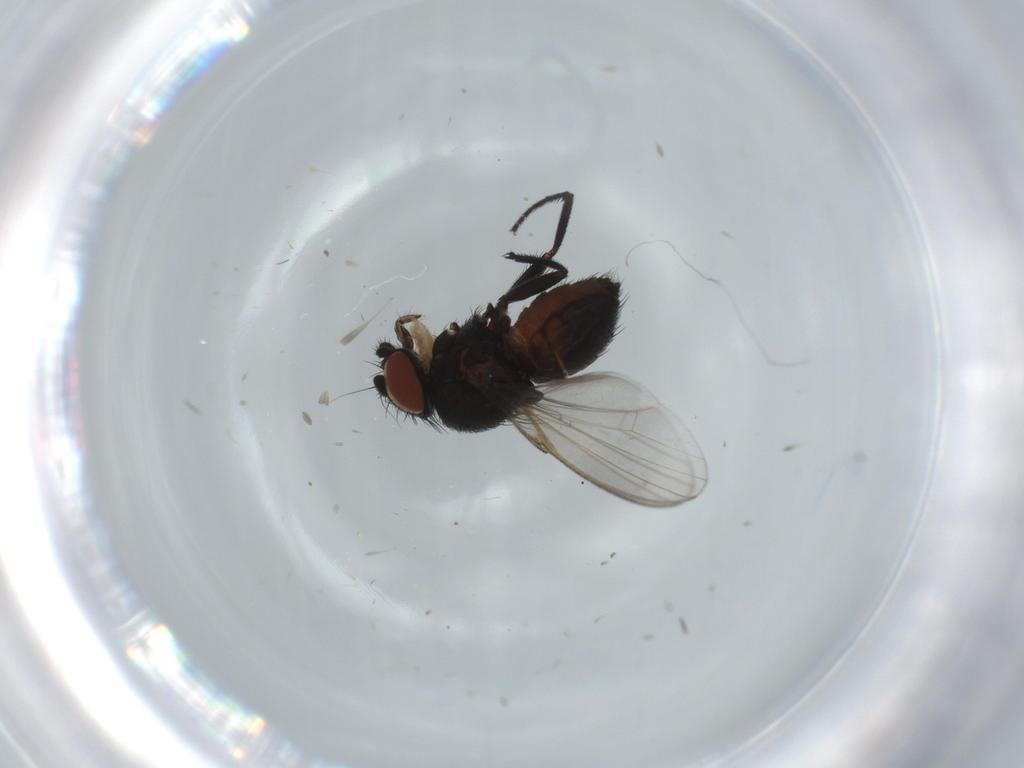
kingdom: Animalia
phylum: Arthropoda
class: Insecta
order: Diptera
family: Milichiidae
